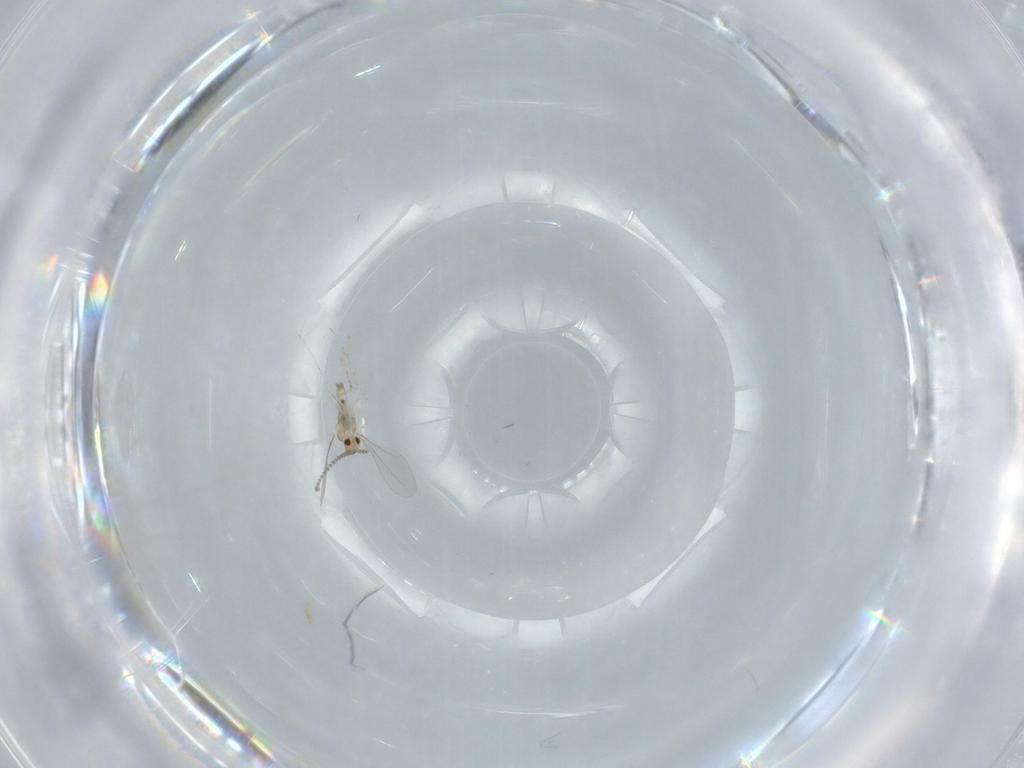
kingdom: Animalia
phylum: Arthropoda
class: Insecta
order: Diptera
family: Cecidomyiidae
